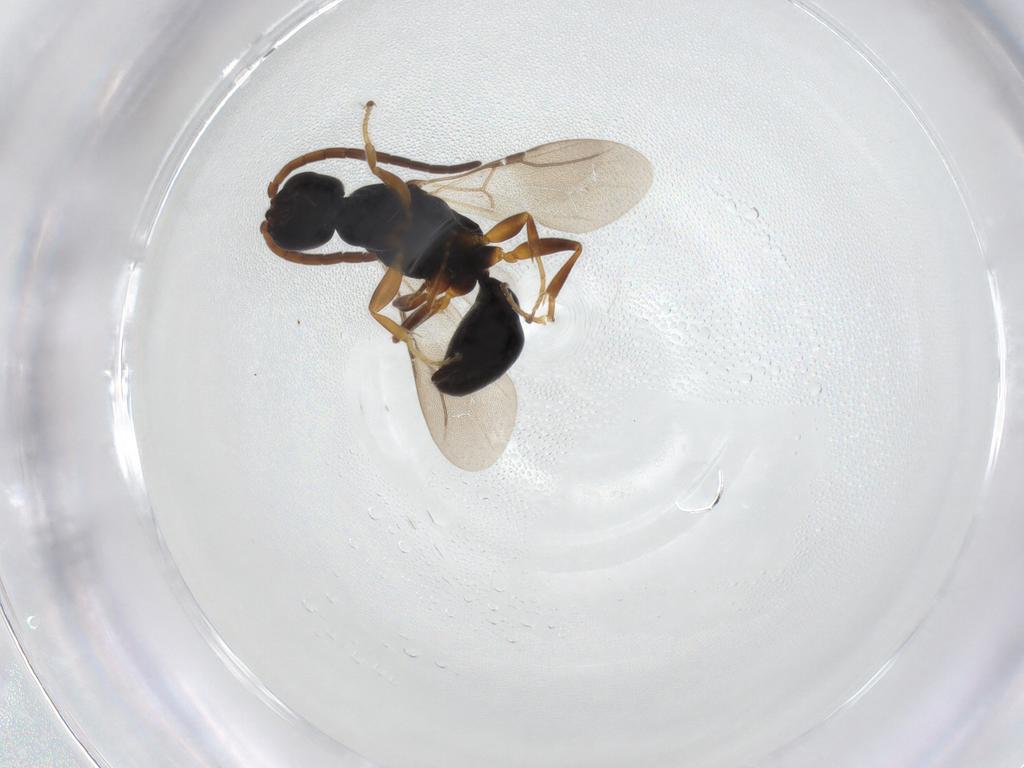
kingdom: Animalia
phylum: Arthropoda
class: Insecta
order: Hymenoptera
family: Bethylidae
